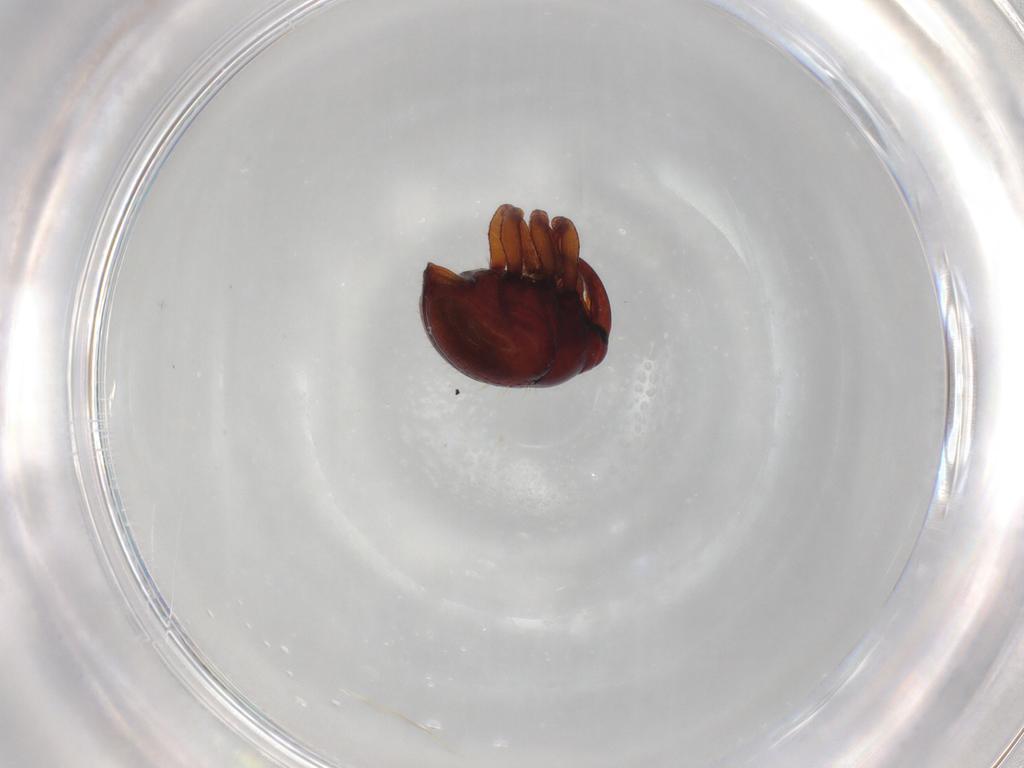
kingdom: Animalia
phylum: Arthropoda
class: Insecta
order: Coleoptera
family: Curculionidae
